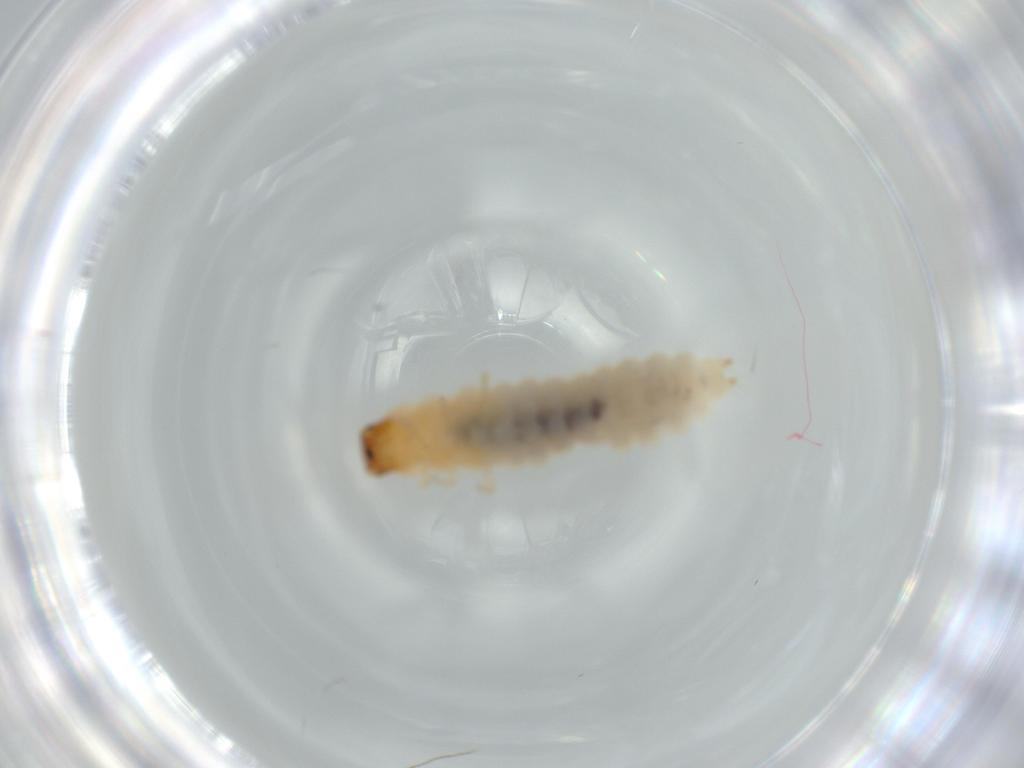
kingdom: Animalia
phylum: Arthropoda
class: Insecta
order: Coleoptera
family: Melyridae
